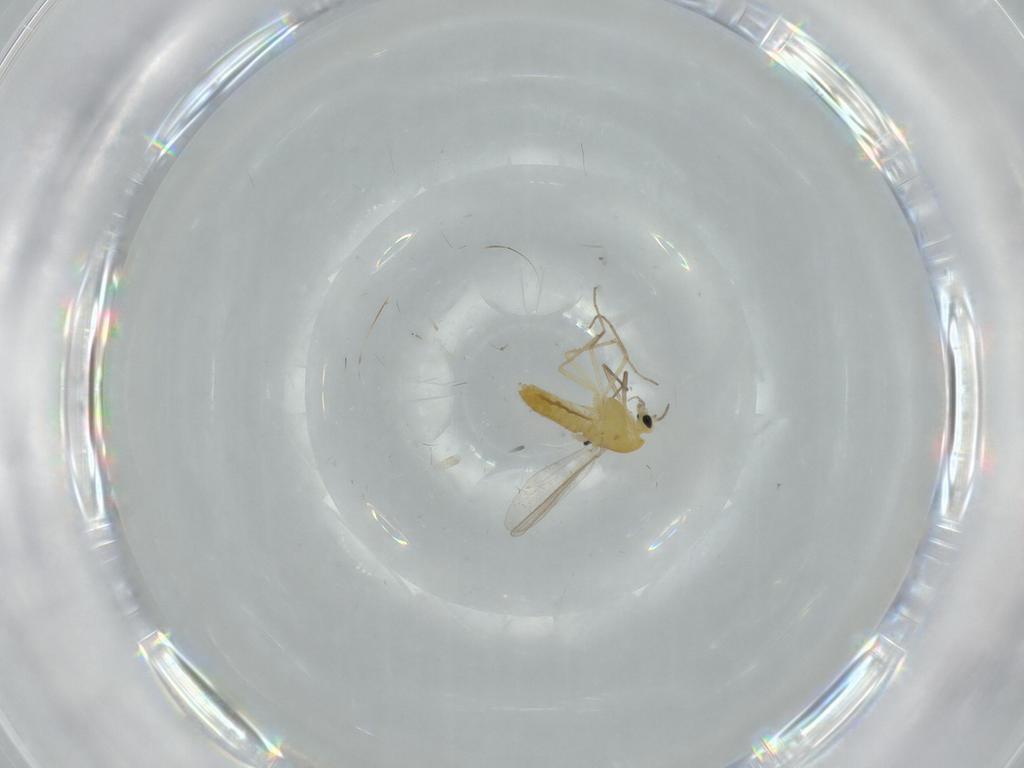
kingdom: Animalia
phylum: Arthropoda
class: Insecta
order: Diptera
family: Chironomidae
